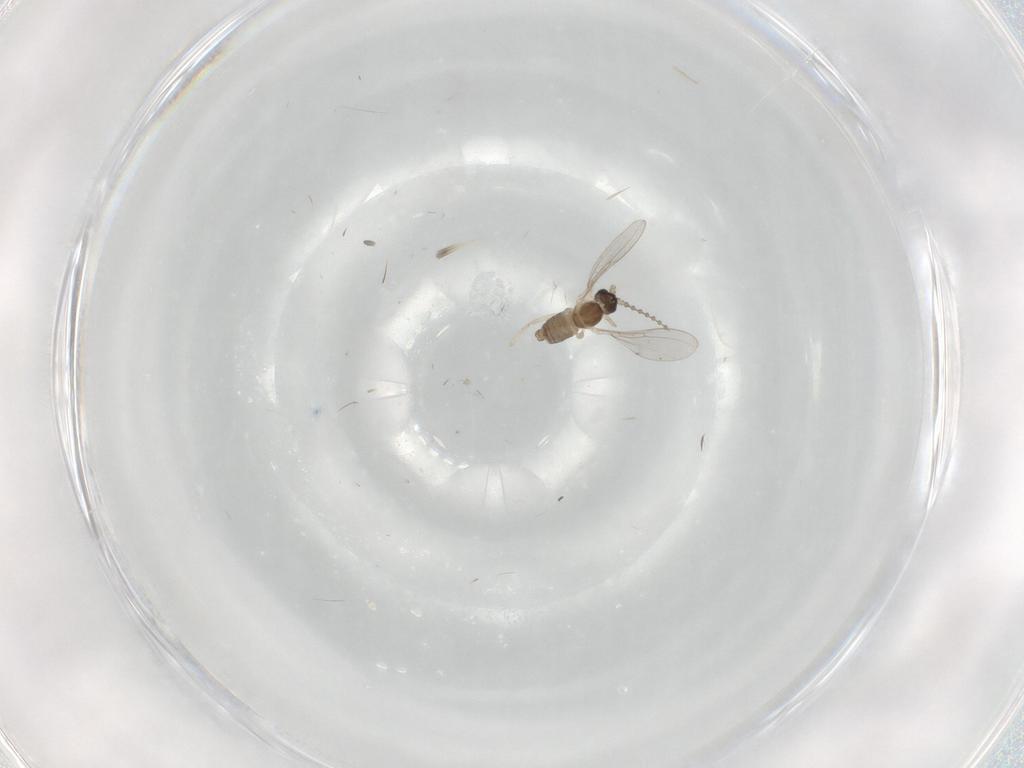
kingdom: Animalia
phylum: Arthropoda
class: Insecta
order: Diptera
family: Cecidomyiidae
